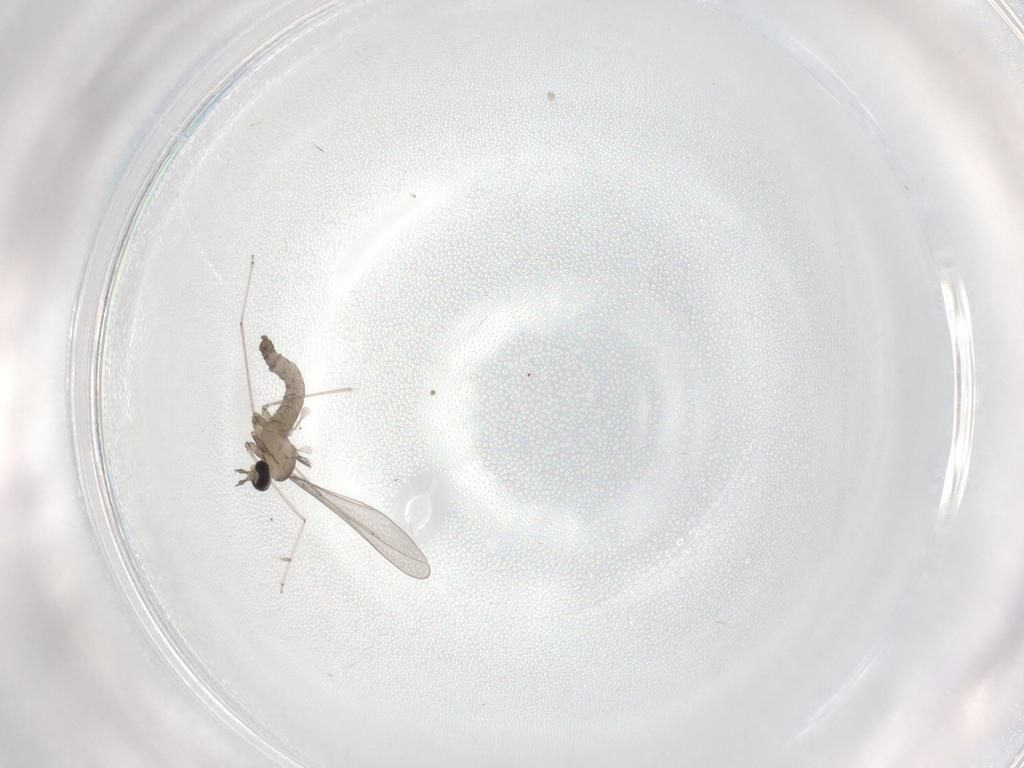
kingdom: Animalia
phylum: Arthropoda
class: Insecta
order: Diptera
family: Cecidomyiidae
